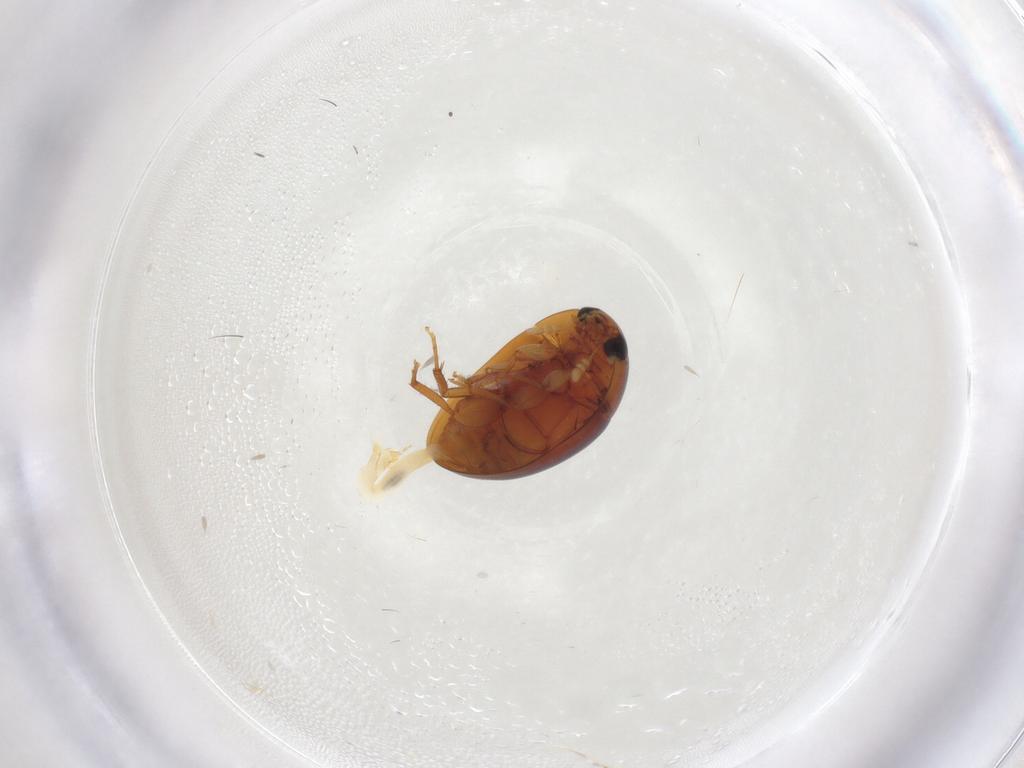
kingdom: Animalia
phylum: Arthropoda
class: Insecta
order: Coleoptera
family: Phalacridae
